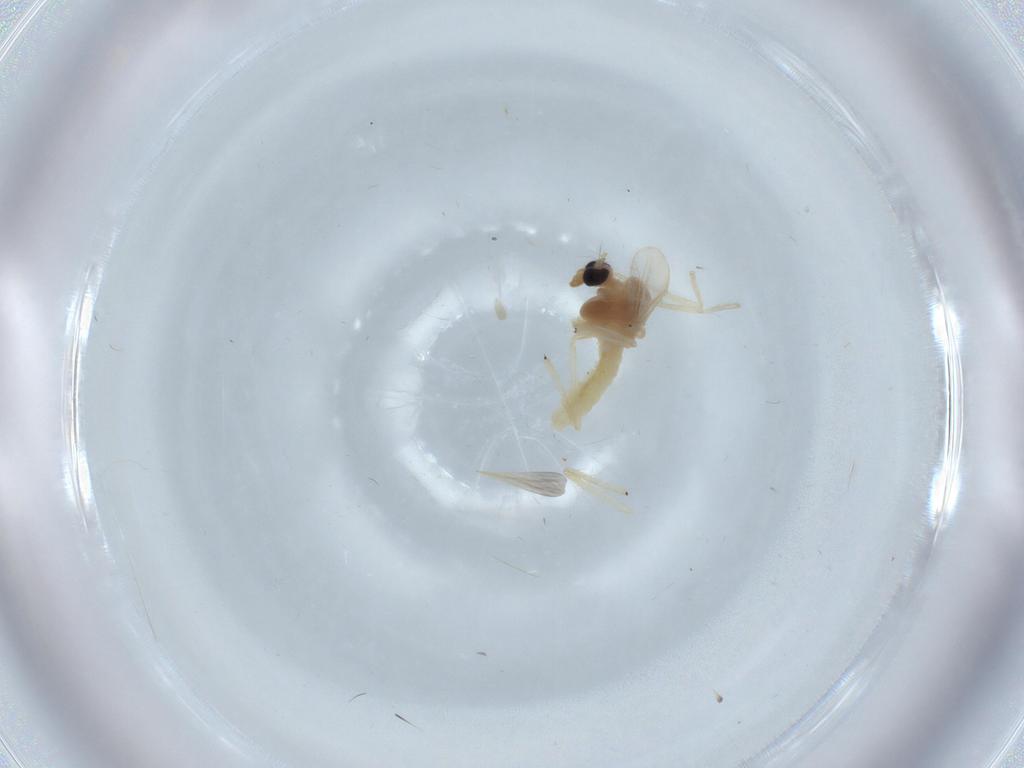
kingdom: Animalia
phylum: Arthropoda
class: Insecta
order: Diptera
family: Chironomidae
